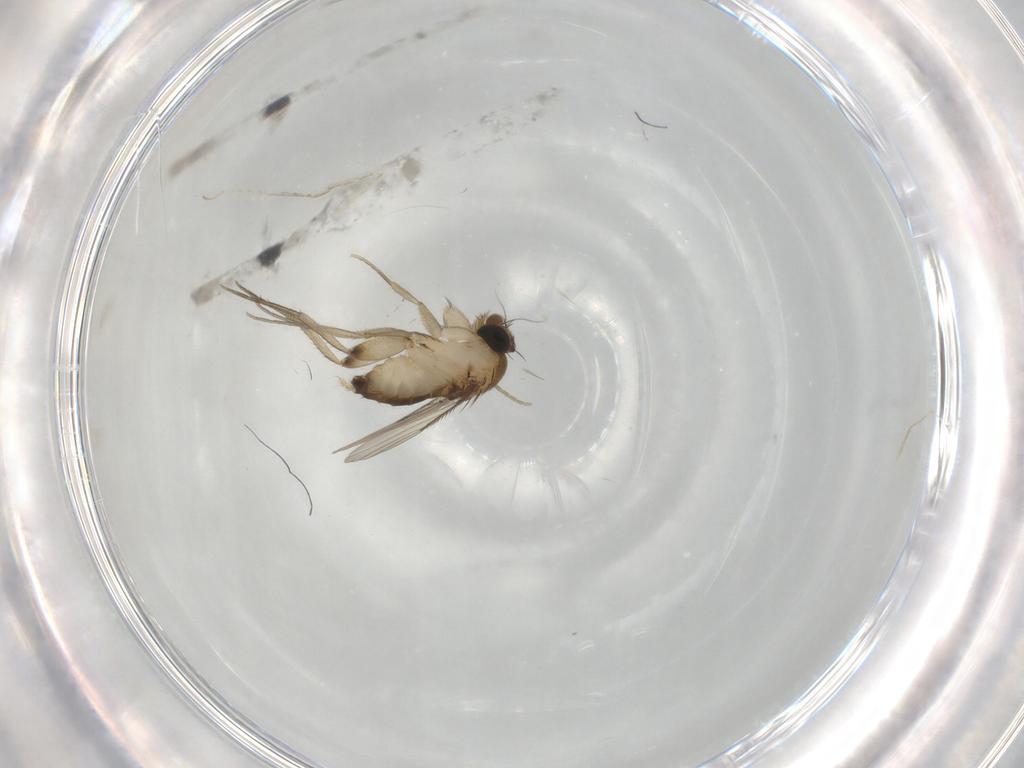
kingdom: Animalia
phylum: Arthropoda
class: Insecta
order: Diptera
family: Phoridae
